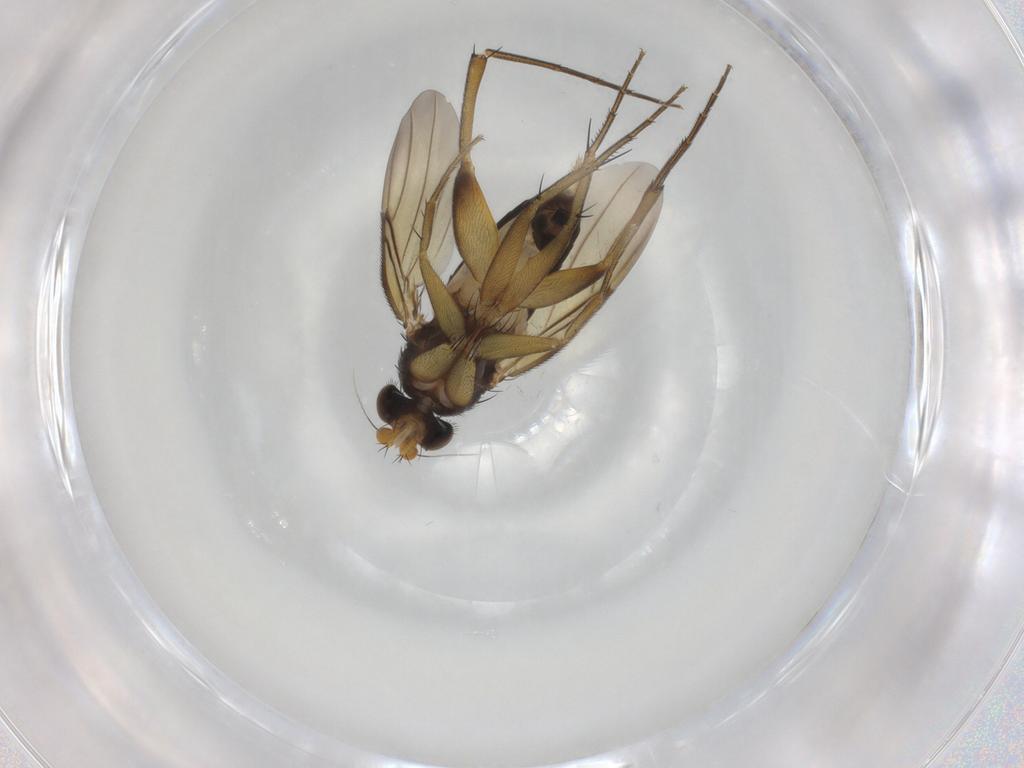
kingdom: Animalia
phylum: Arthropoda
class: Insecta
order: Diptera
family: Phoridae
